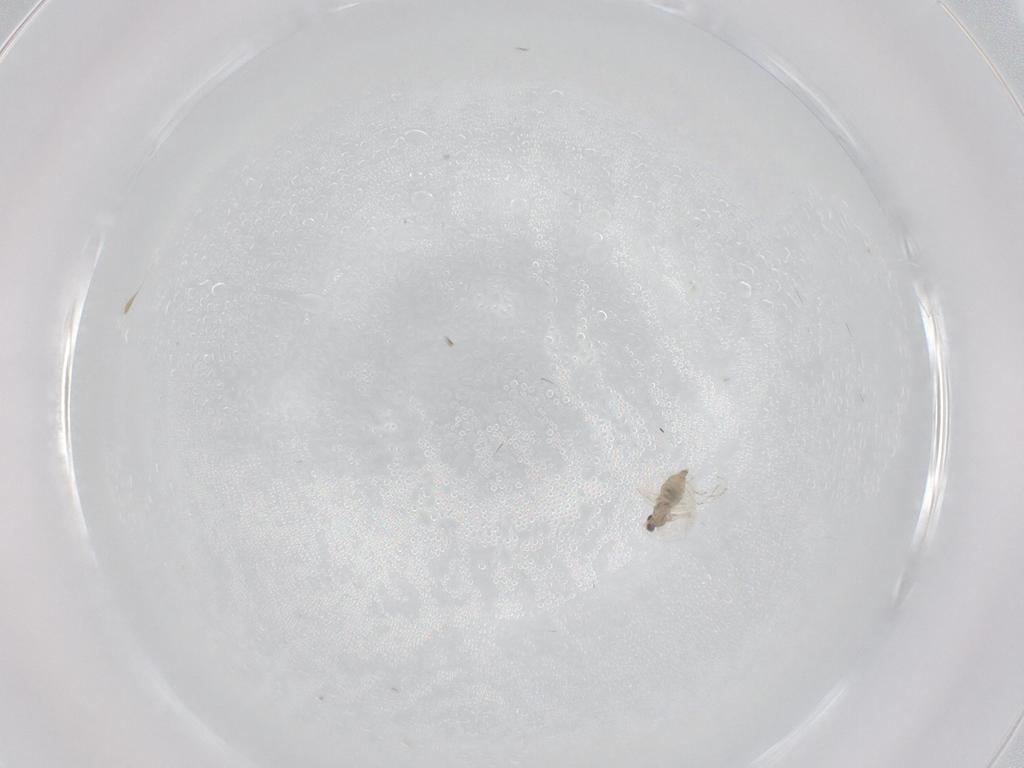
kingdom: Animalia
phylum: Arthropoda
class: Insecta
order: Diptera
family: Cecidomyiidae
